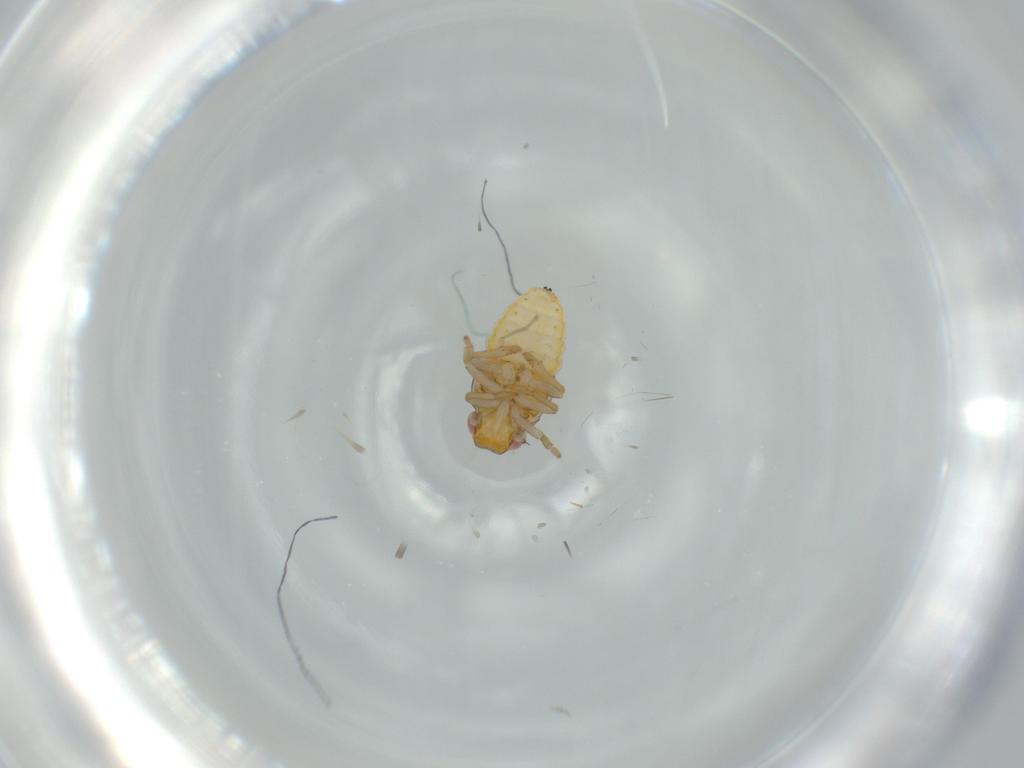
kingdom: Animalia
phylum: Arthropoda
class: Insecta
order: Hemiptera
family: Issidae
